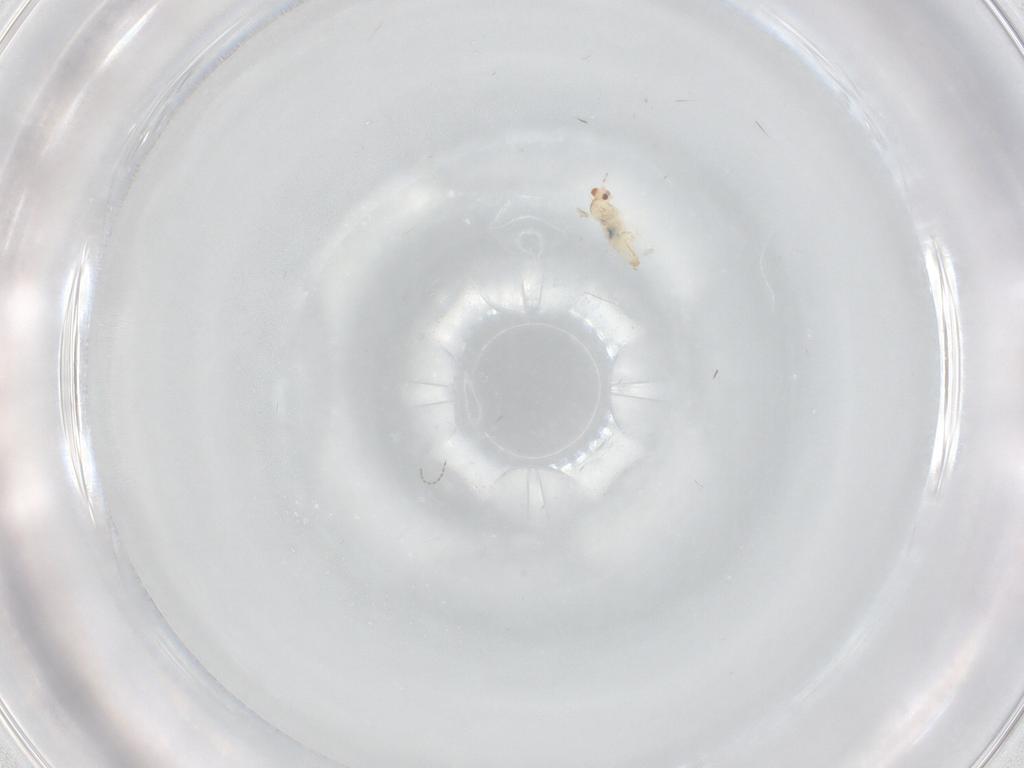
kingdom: Animalia
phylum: Arthropoda
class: Insecta
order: Diptera
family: Cecidomyiidae
